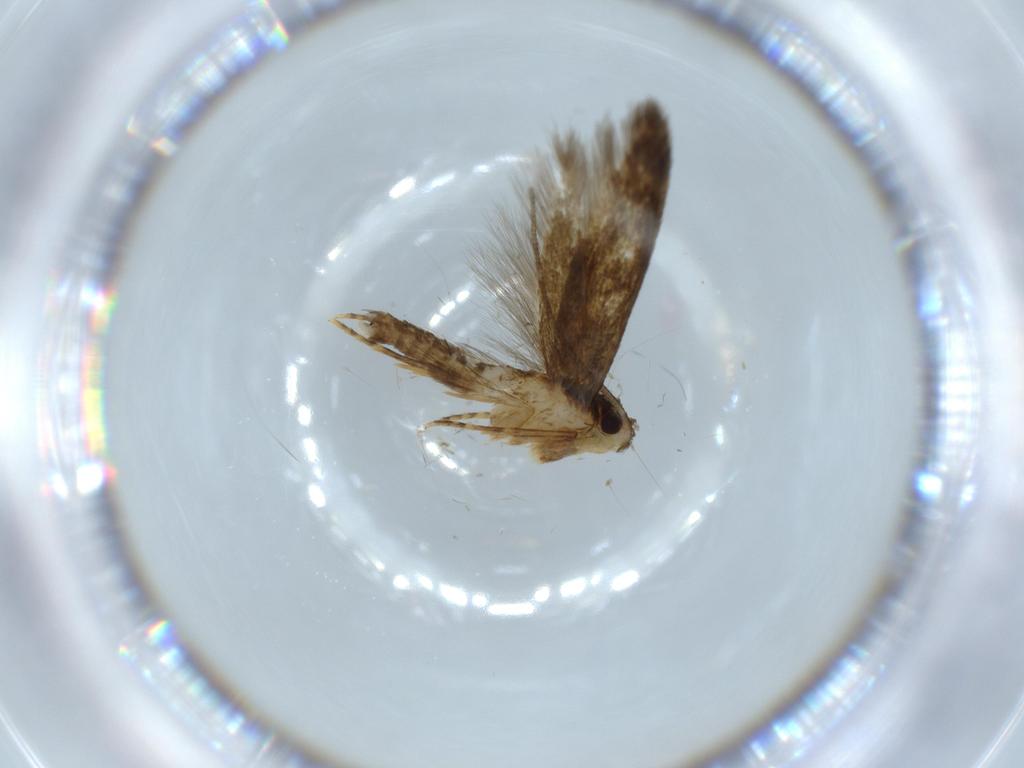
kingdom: Animalia
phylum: Arthropoda
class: Insecta
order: Lepidoptera
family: Tineidae
